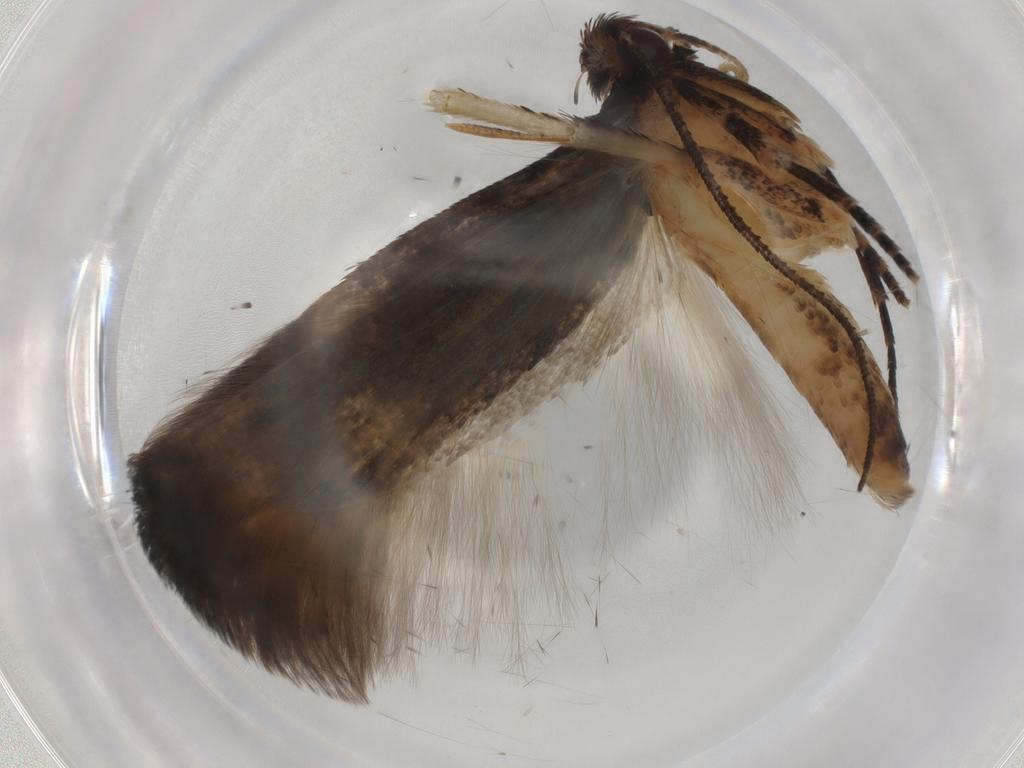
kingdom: Animalia
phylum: Arthropoda
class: Insecta
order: Lepidoptera
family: Gelechiidae
